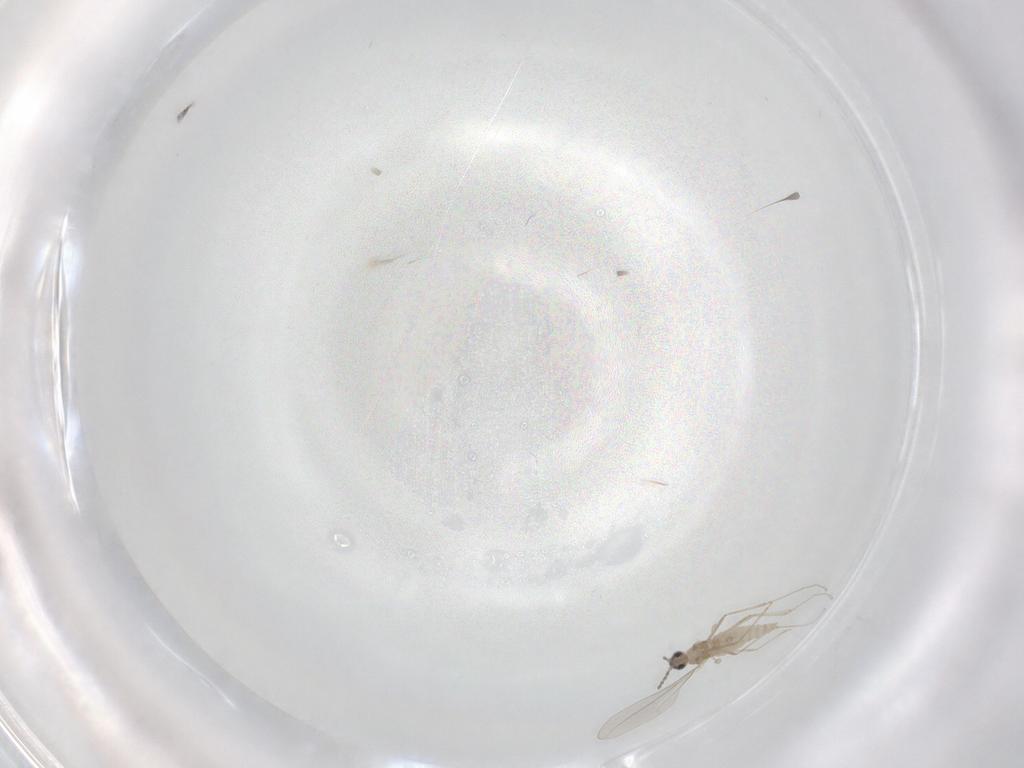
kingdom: Animalia
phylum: Arthropoda
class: Insecta
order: Diptera
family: Cecidomyiidae
